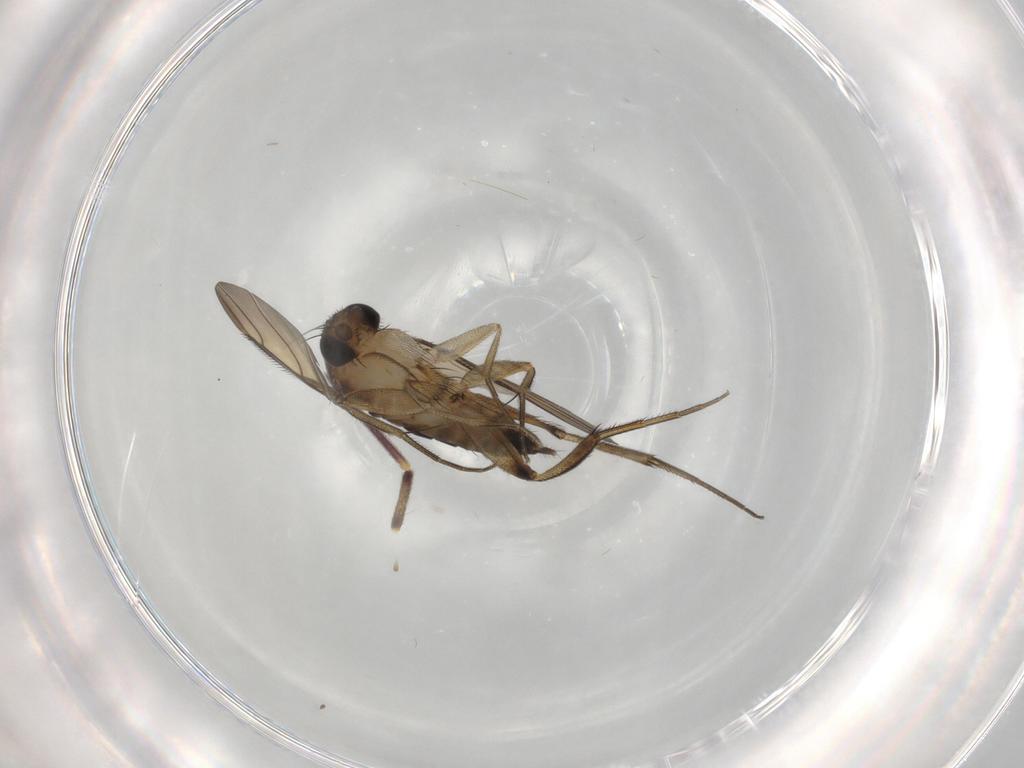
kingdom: Animalia
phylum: Arthropoda
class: Insecta
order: Diptera
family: Phoridae
